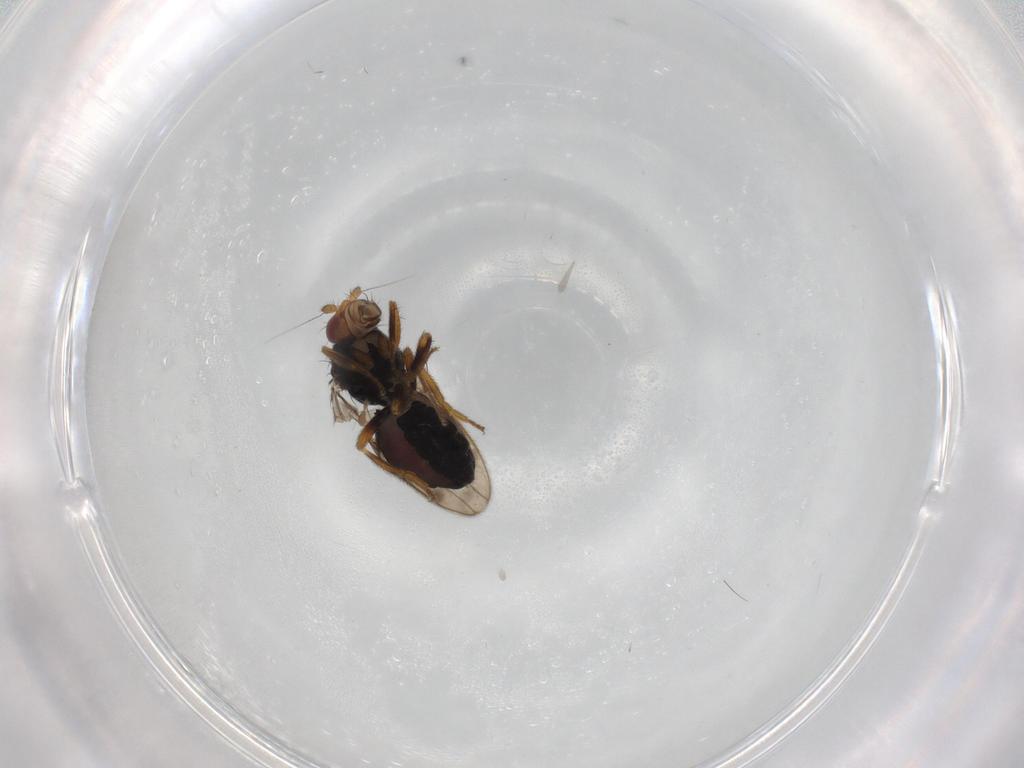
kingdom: Animalia
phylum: Arthropoda
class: Insecta
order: Diptera
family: Sphaeroceridae
